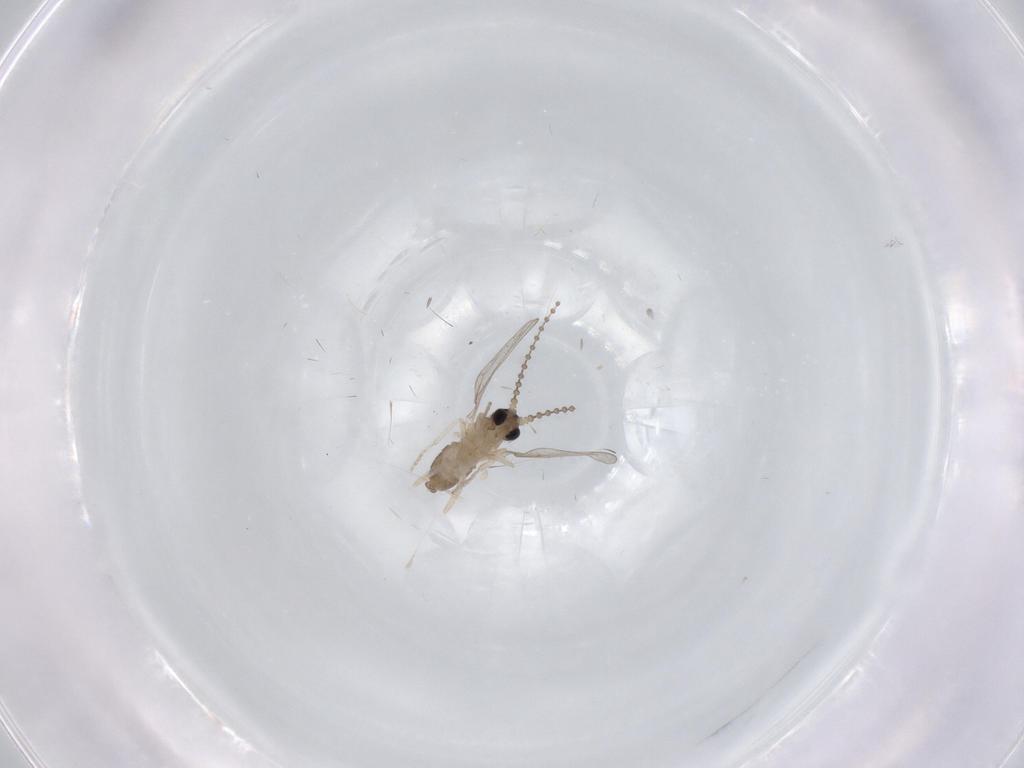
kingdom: Animalia
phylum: Arthropoda
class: Insecta
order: Diptera
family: Cecidomyiidae
